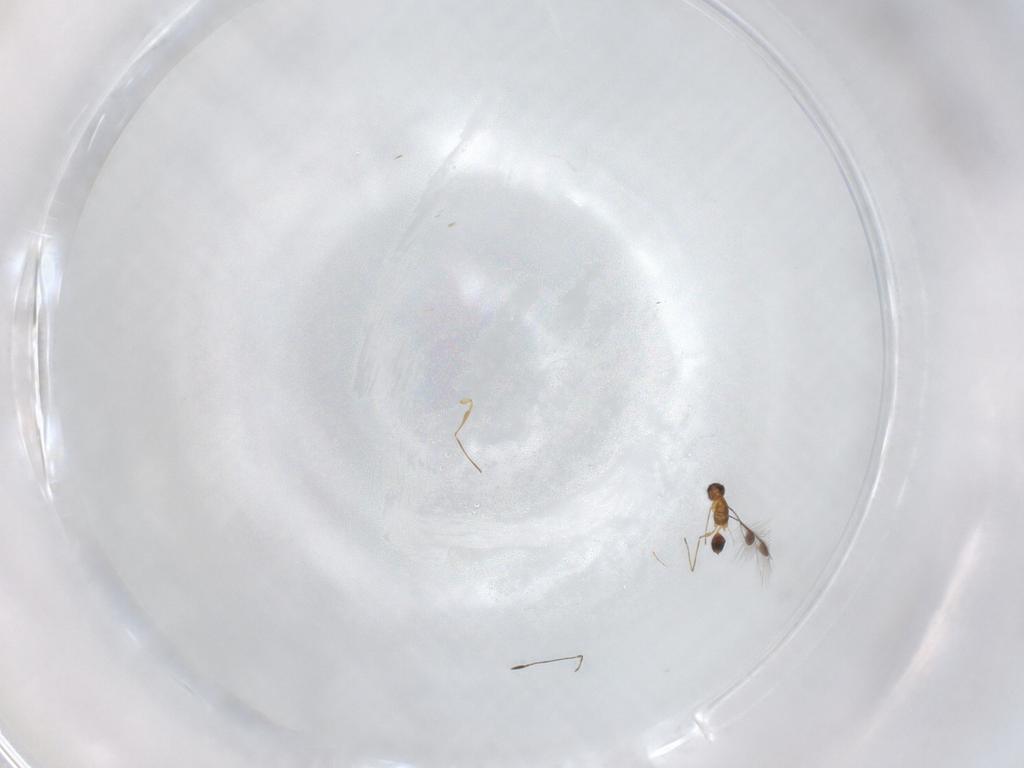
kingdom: Animalia
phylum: Arthropoda
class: Insecta
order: Hymenoptera
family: Mymaridae
